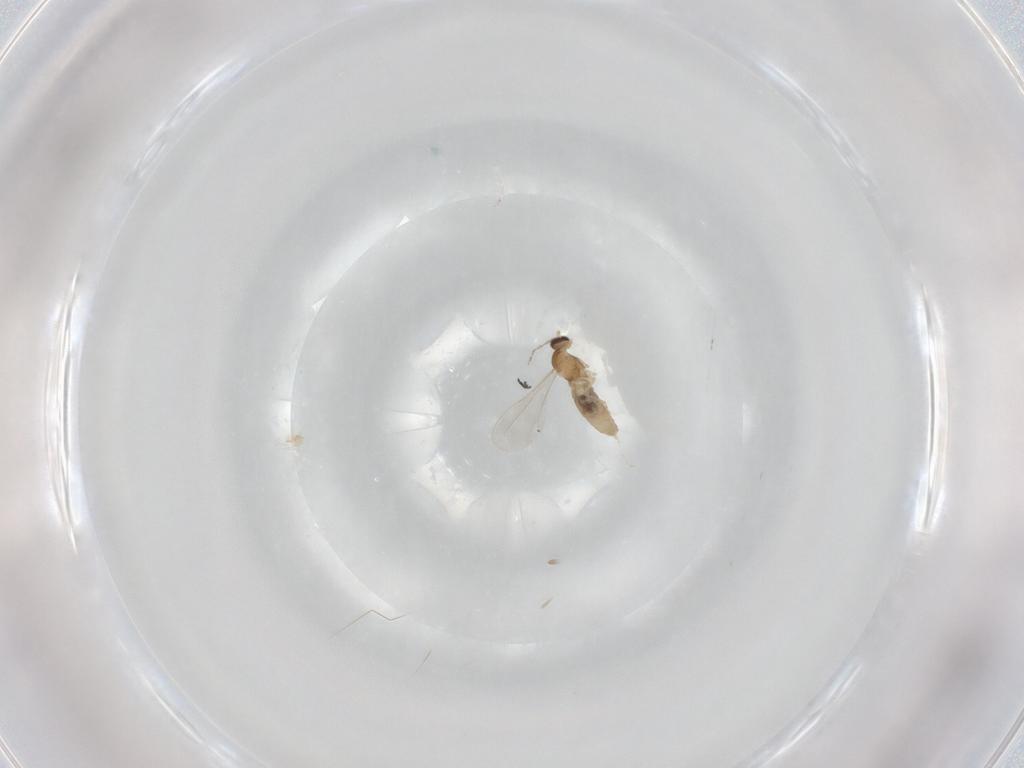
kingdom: Animalia
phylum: Arthropoda
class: Insecta
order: Diptera
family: Cecidomyiidae
